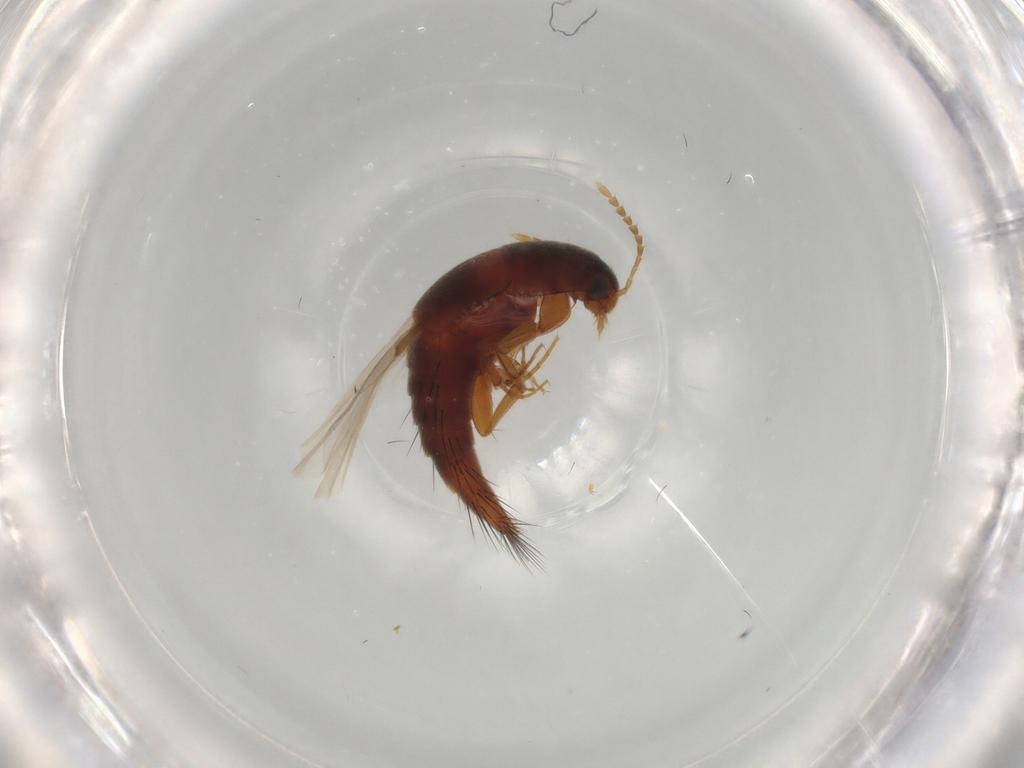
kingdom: Animalia
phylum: Arthropoda
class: Insecta
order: Coleoptera
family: Staphylinidae
